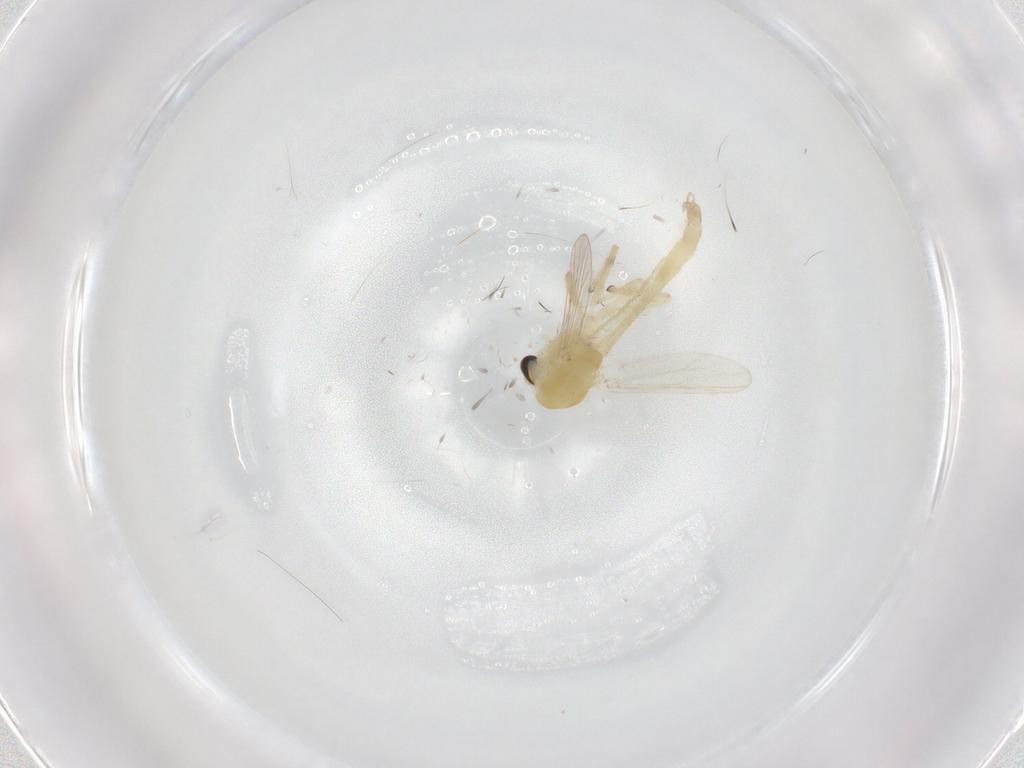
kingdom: Animalia
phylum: Arthropoda
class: Insecta
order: Diptera
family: Chironomidae
